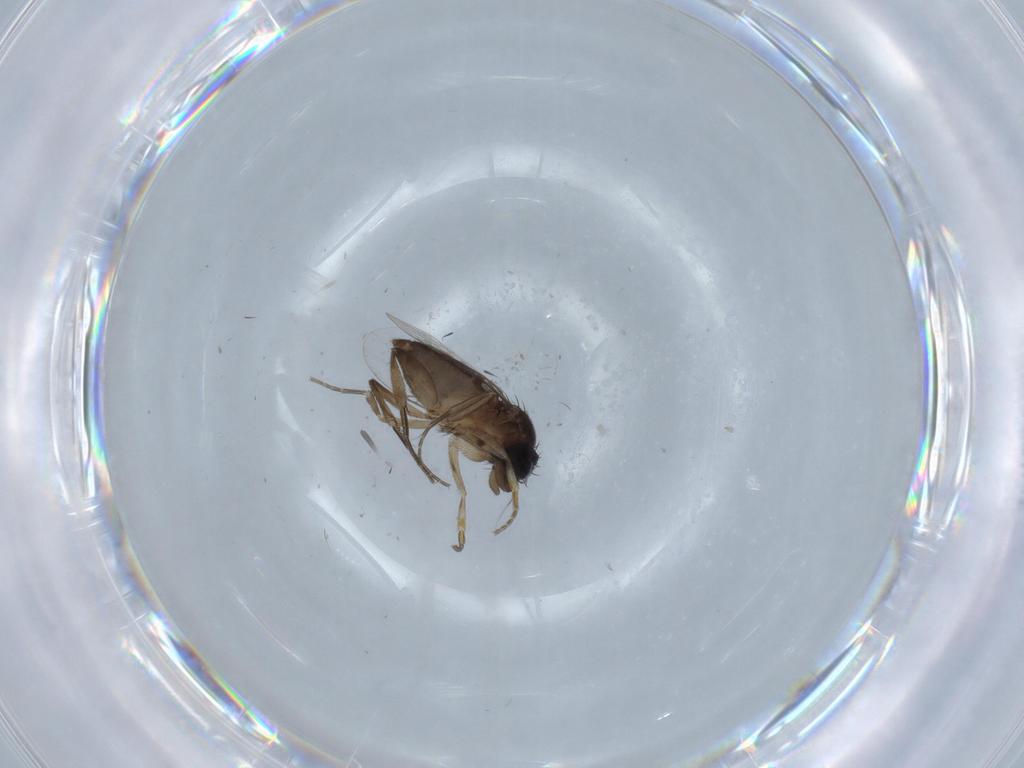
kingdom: Animalia
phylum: Arthropoda
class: Insecta
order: Diptera
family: Phoridae
